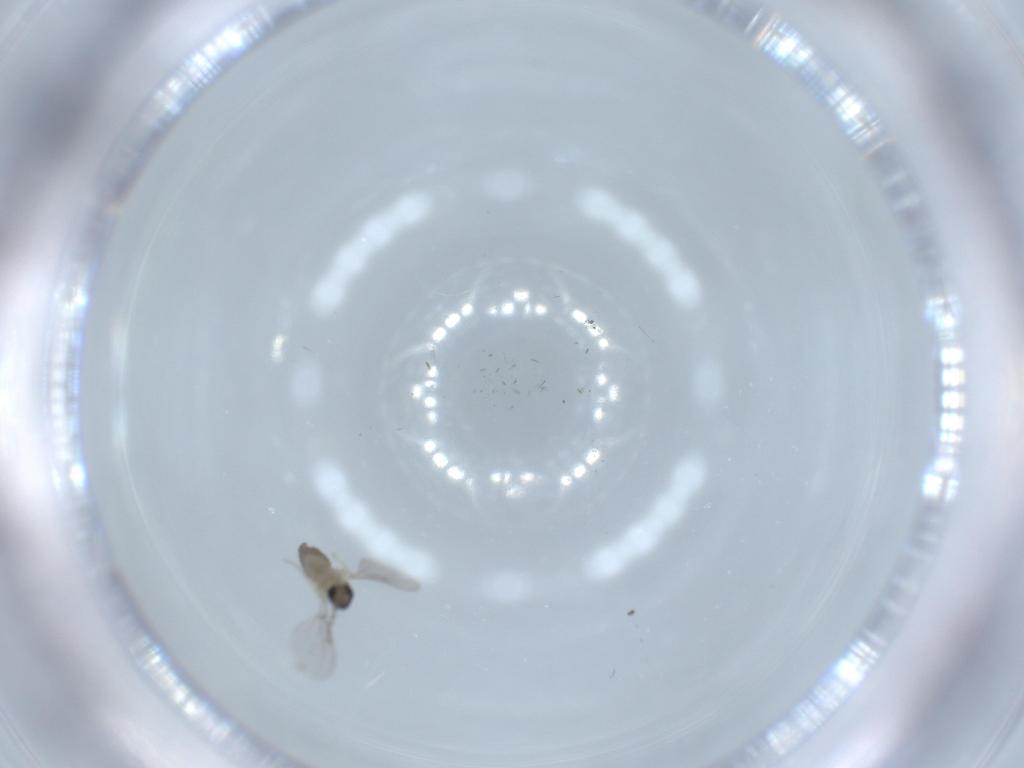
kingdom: Animalia
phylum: Arthropoda
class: Insecta
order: Diptera
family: Cecidomyiidae
